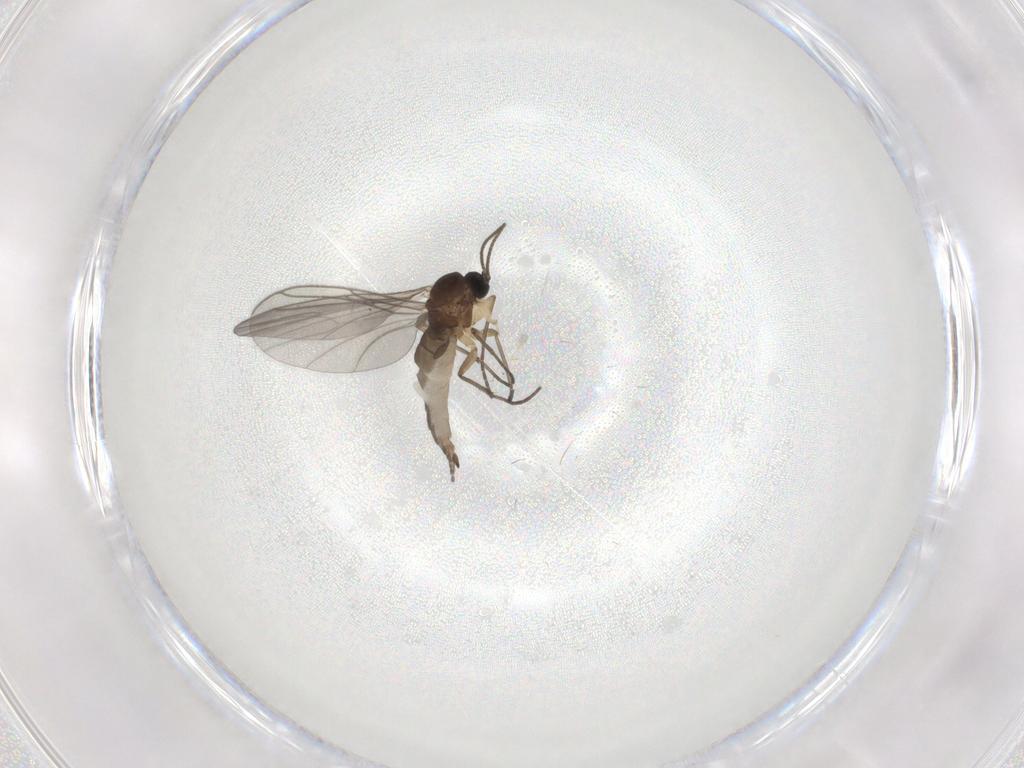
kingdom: Animalia
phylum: Arthropoda
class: Insecta
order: Diptera
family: Sciaridae
